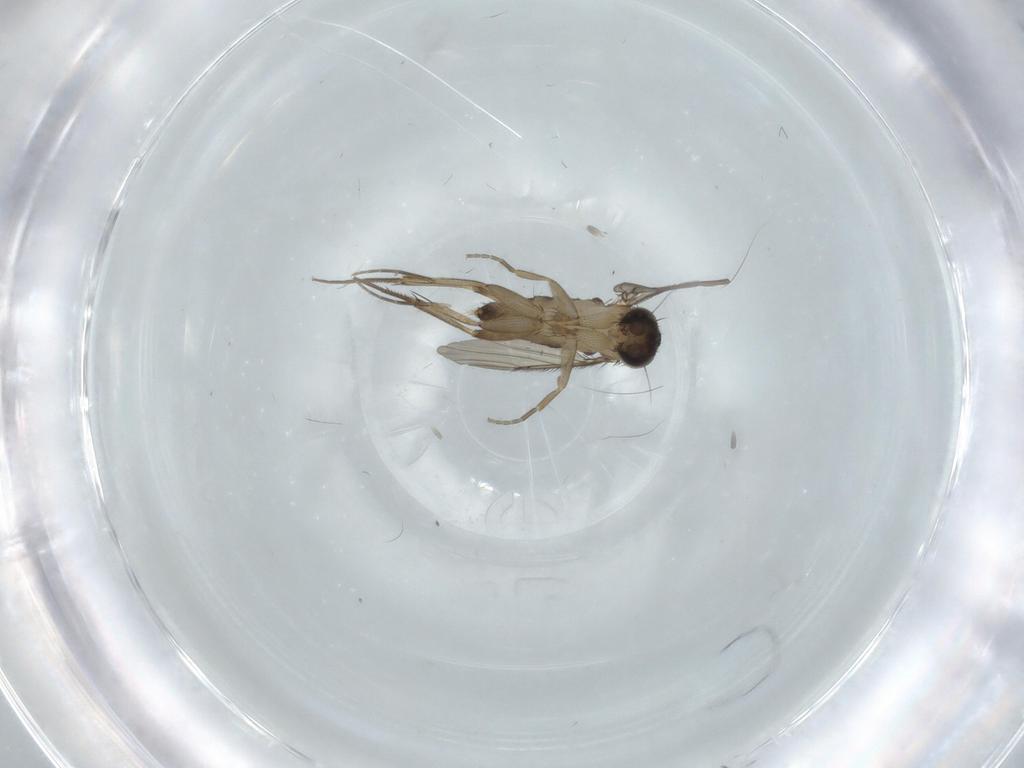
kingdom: Animalia
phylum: Arthropoda
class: Insecta
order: Diptera
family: Phoridae
